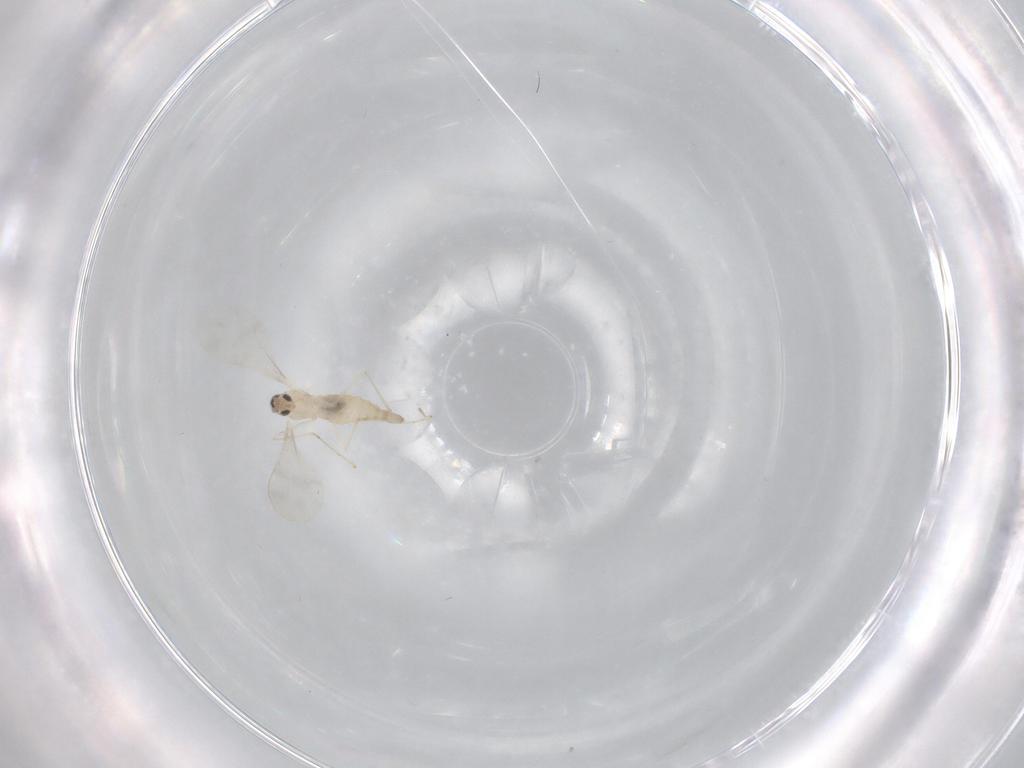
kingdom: Animalia
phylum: Arthropoda
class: Insecta
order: Diptera
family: Cecidomyiidae
